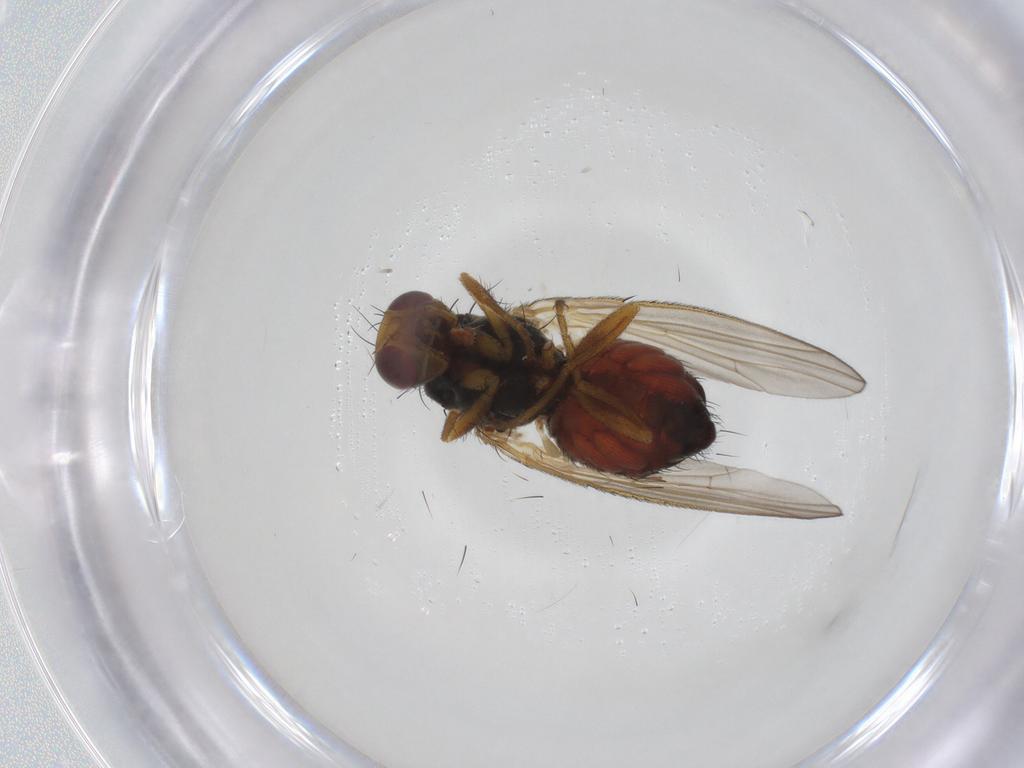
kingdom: Animalia
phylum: Arthropoda
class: Insecta
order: Diptera
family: Heleomyzidae
